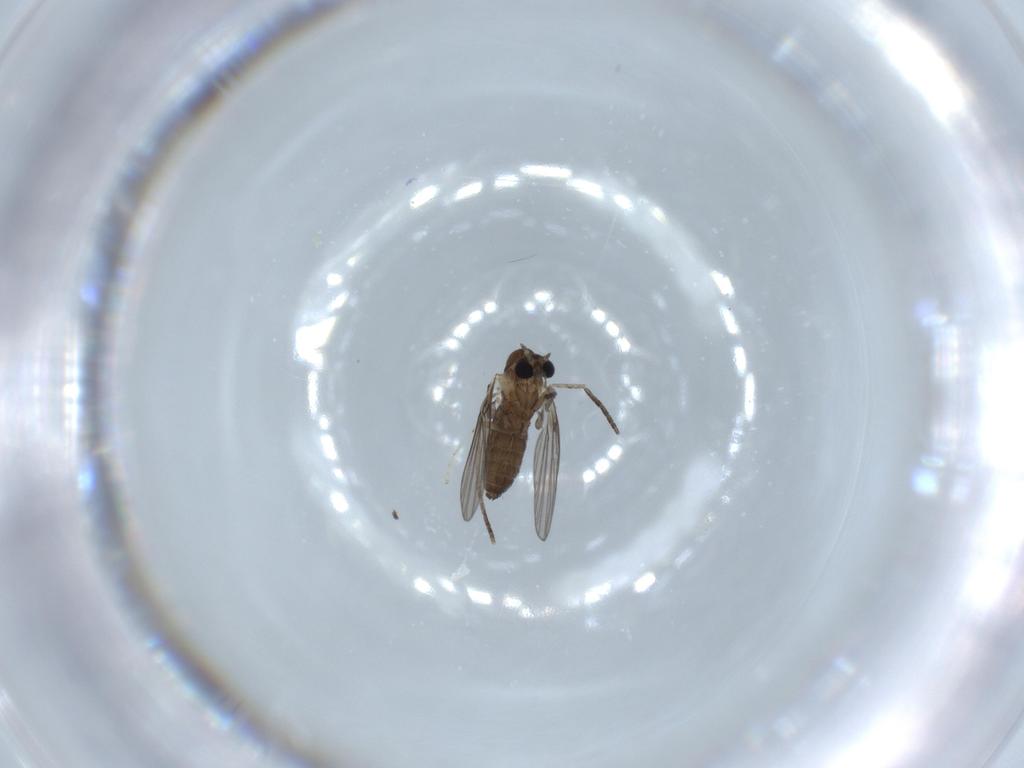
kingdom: Animalia
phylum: Arthropoda
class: Insecta
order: Diptera
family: Psychodidae
